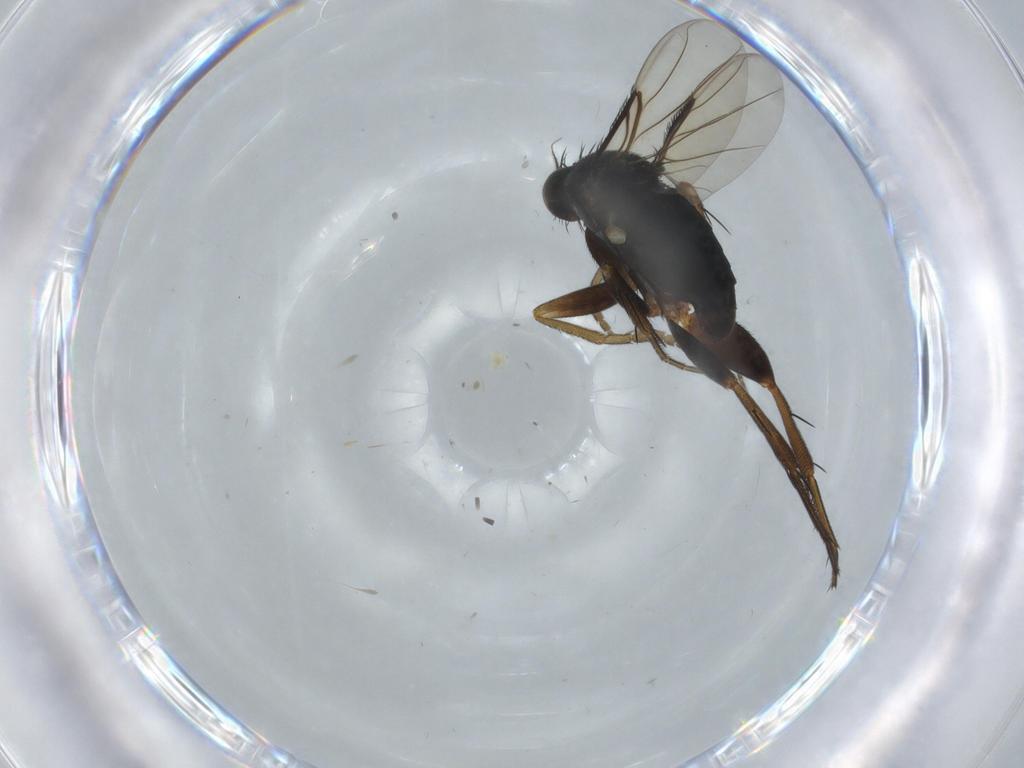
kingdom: Animalia
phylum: Arthropoda
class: Insecta
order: Diptera
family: Phoridae
